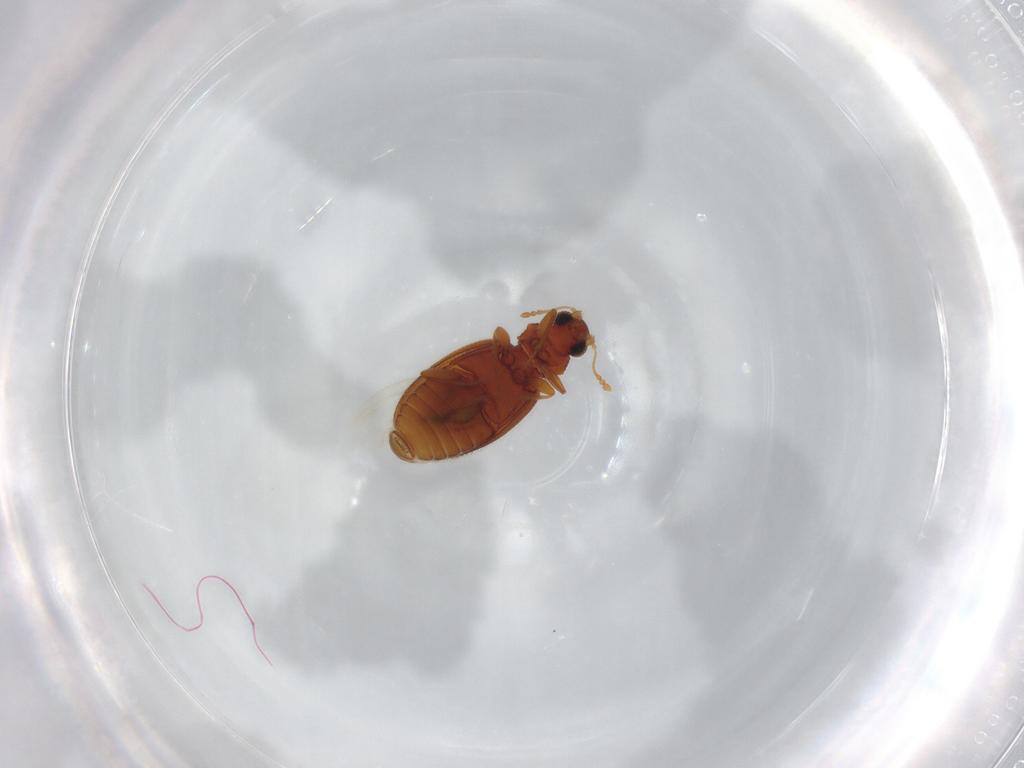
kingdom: Animalia
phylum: Arthropoda
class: Insecta
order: Coleoptera
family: Latridiidae
